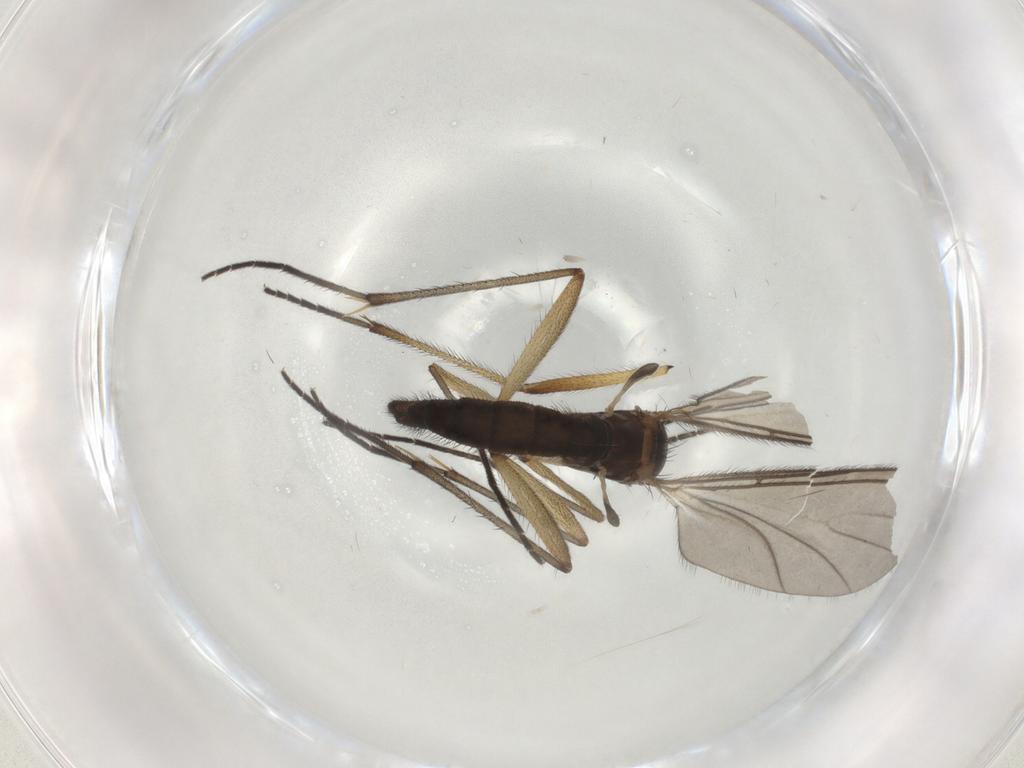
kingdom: Animalia
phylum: Arthropoda
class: Insecta
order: Diptera
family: Sciaridae
